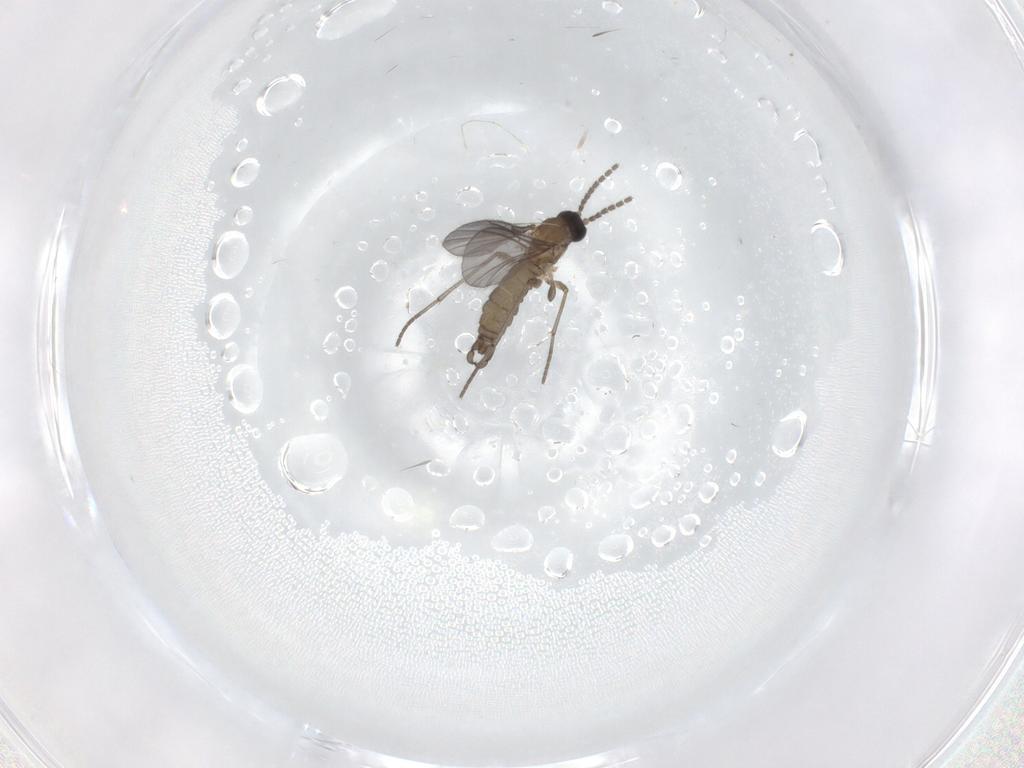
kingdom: Animalia
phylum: Arthropoda
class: Insecta
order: Diptera
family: Sciaridae
